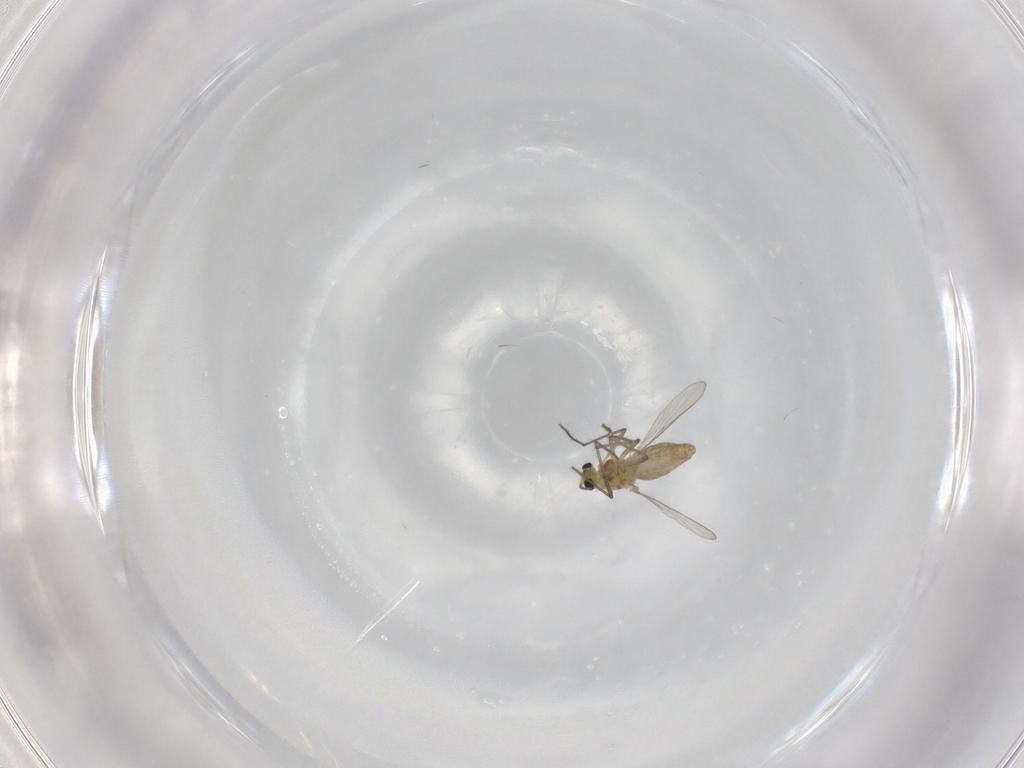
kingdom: Animalia
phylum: Arthropoda
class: Insecta
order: Diptera
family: Chironomidae
